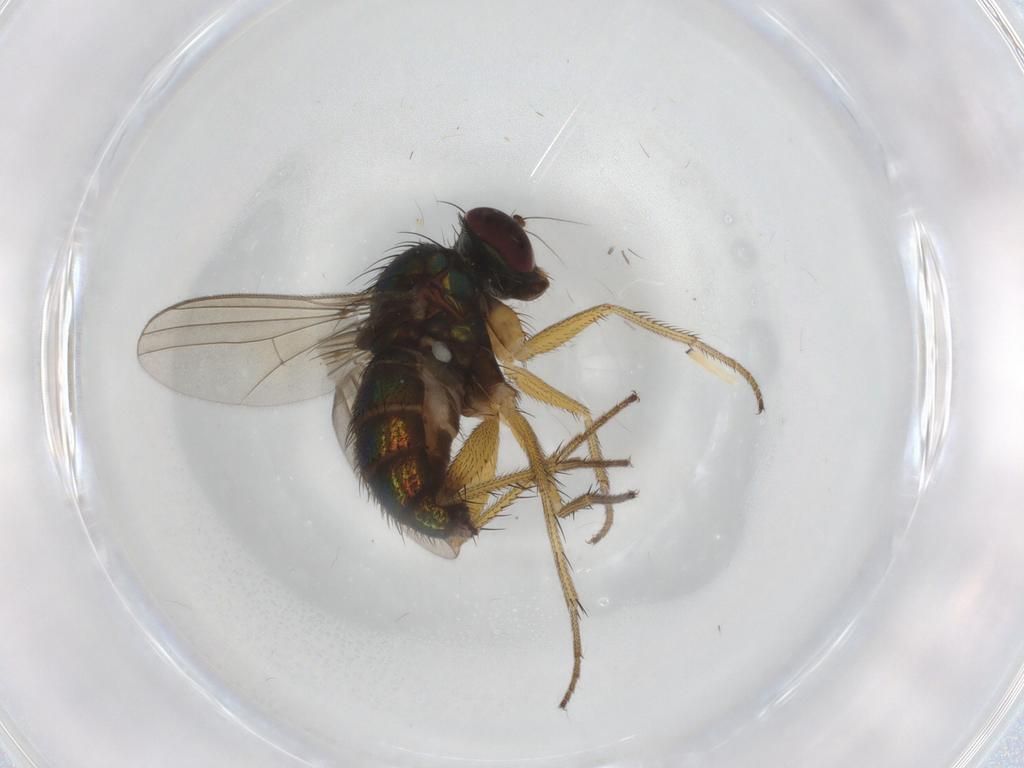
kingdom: Animalia
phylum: Arthropoda
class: Insecta
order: Diptera
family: Dolichopodidae
